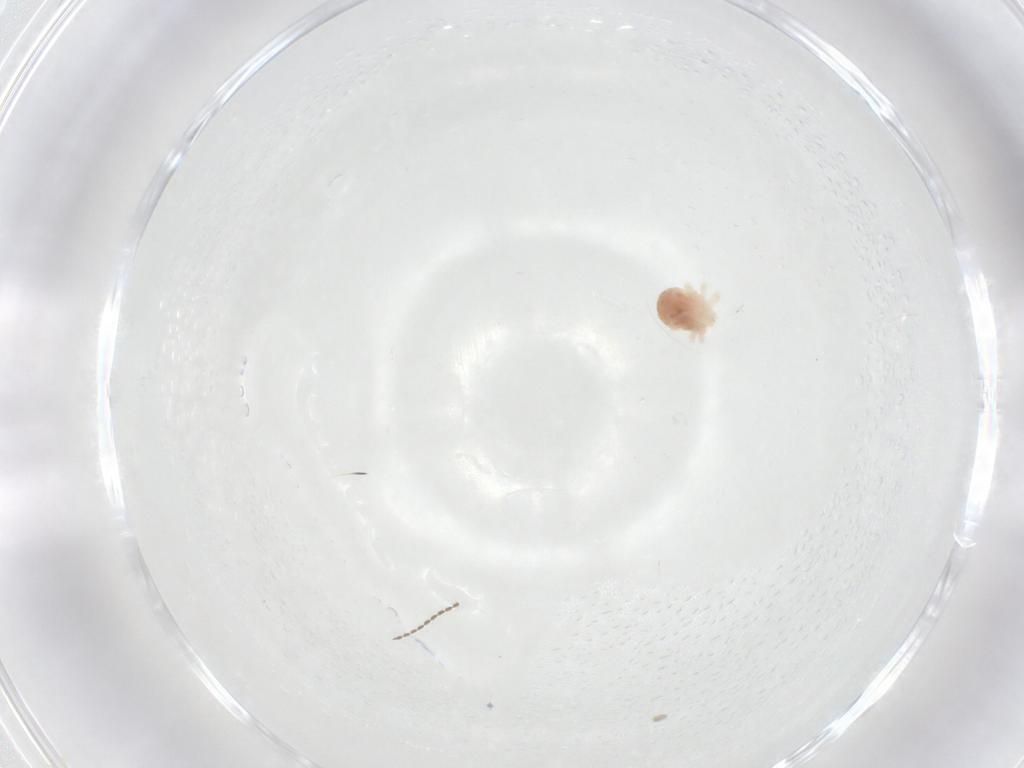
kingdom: Animalia
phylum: Arthropoda
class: Arachnida
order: Trombidiformes
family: Anystidae
